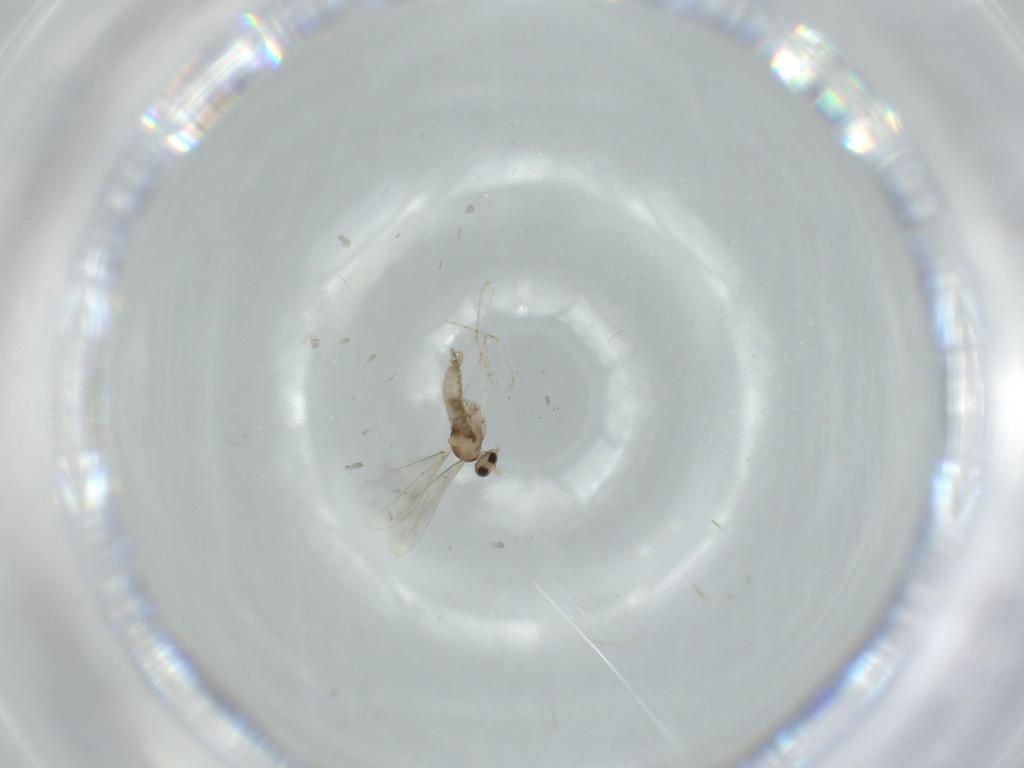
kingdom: Animalia
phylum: Arthropoda
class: Insecta
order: Diptera
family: Cecidomyiidae
